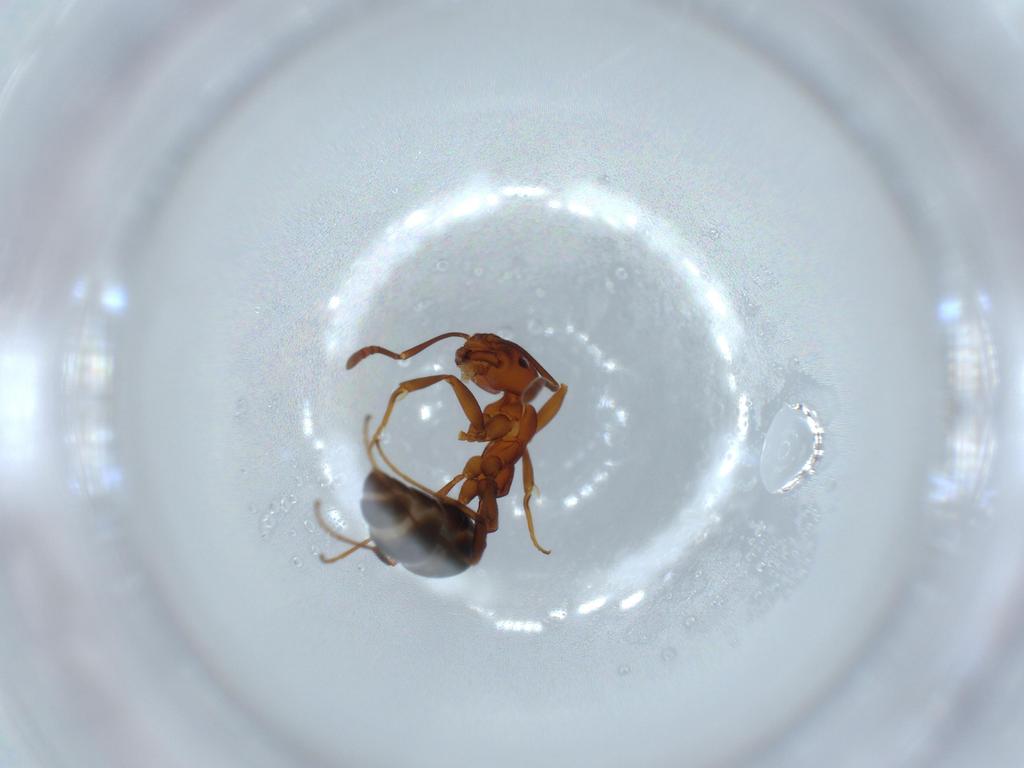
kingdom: Animalia
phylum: Arthropoda
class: Insecta
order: Hymenoptera
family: Formicidae
